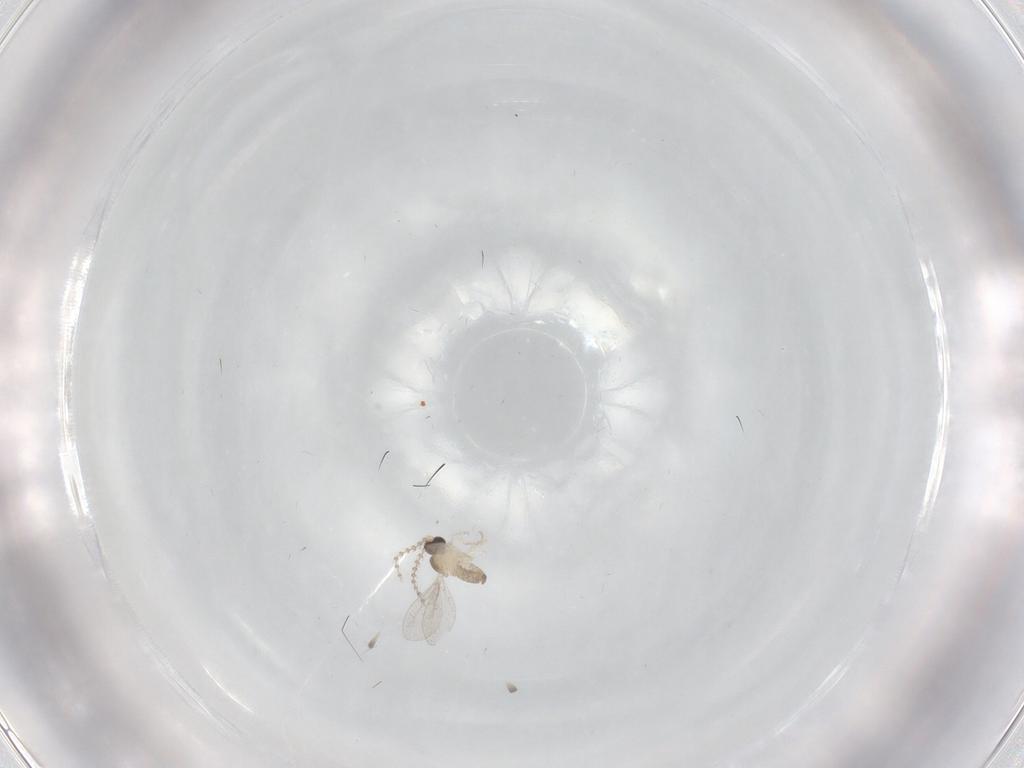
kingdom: Animalia
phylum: Arthropoda
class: Insecta
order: Diptera
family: Cecidomyiidae
